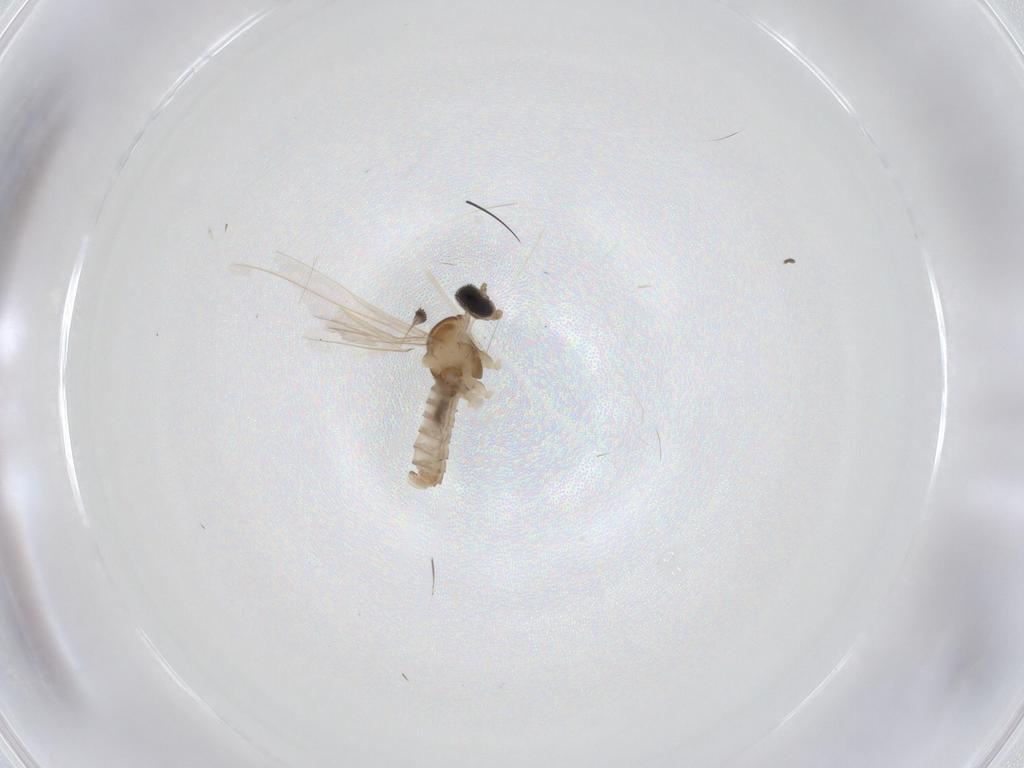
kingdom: Animalia
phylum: Arthropoda
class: Insecta
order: Diptera
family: Cecidomyiidae
